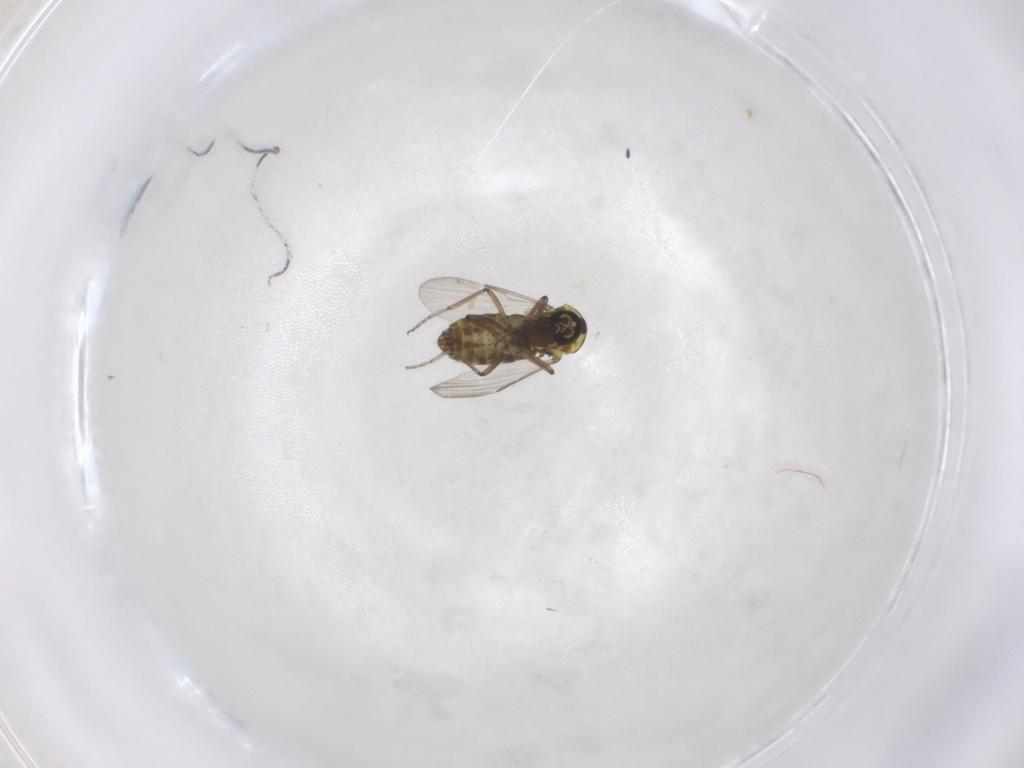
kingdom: Animalia
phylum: Arthropoda
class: Insecta
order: Diptera
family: Ceratopogonidae
